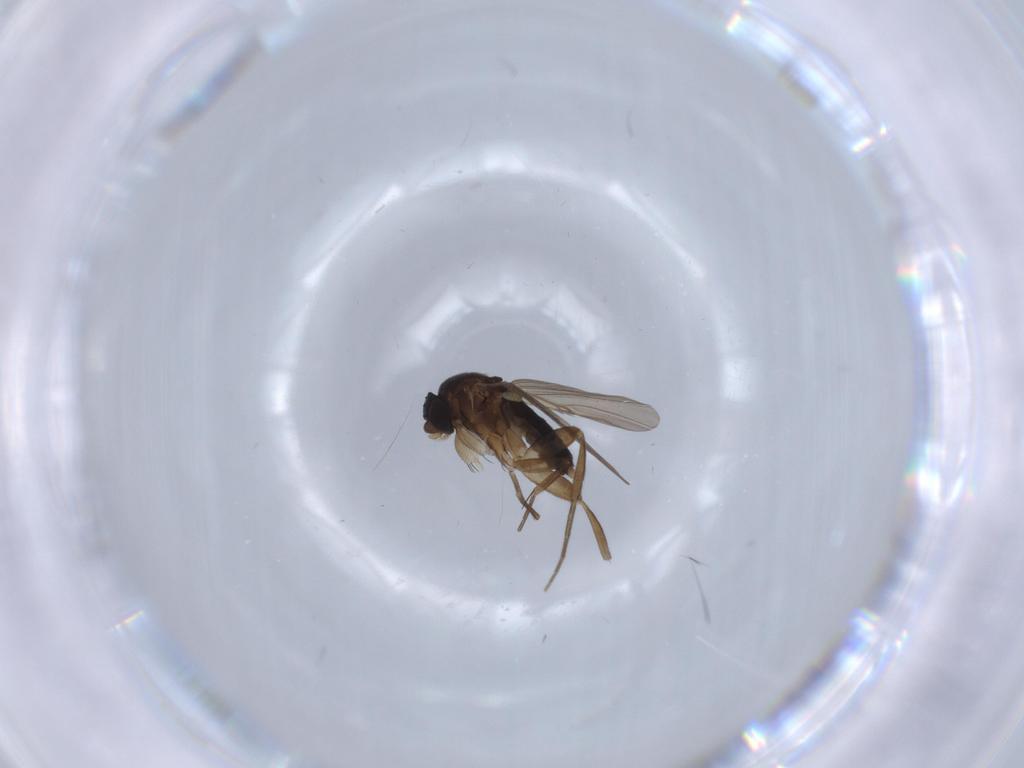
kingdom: Animalia
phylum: Arthropoda
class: Insecta
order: Diptera
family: Phoridae
